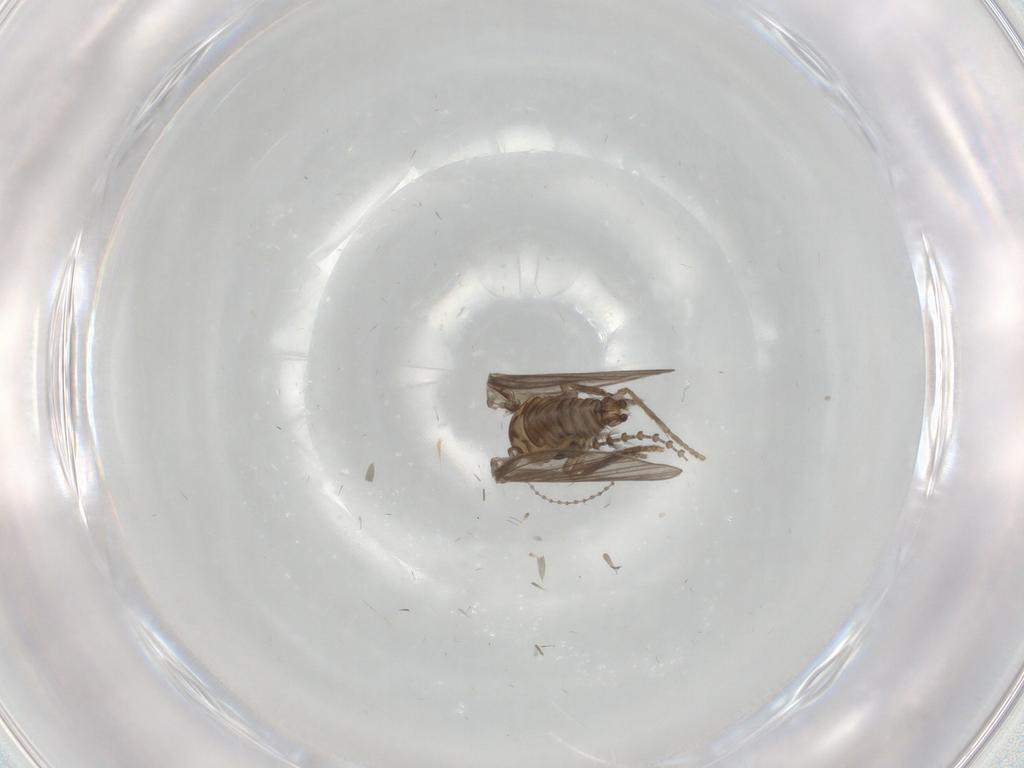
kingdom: Animalia
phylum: Arthropoda
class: Insecta
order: Diptera
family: Psychodidae
